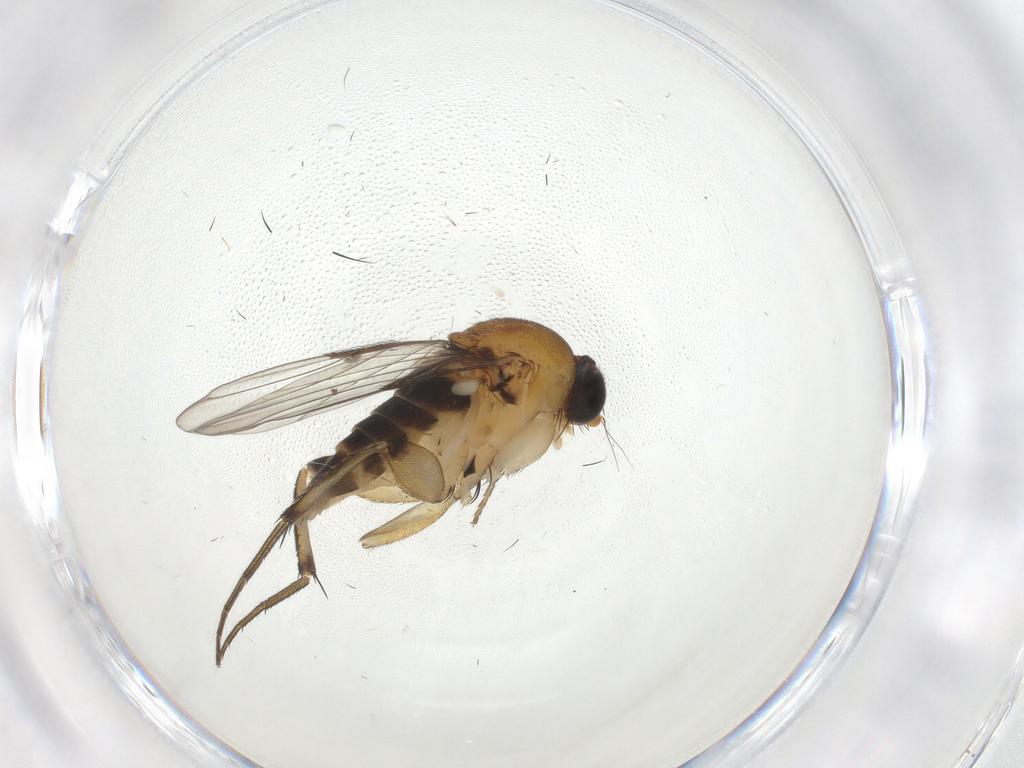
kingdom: Animalia
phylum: Arthropoda
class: Insecta
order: Diptera
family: Phoridae
